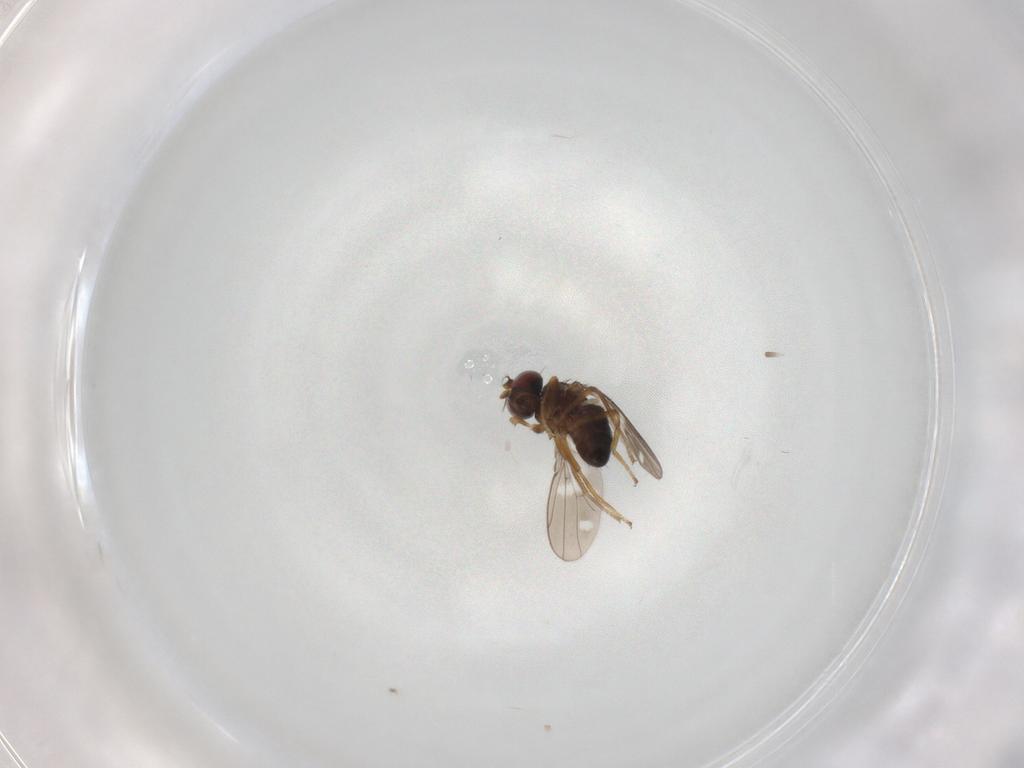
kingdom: Animalia
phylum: Arthropoda
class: Insecta
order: Diptera
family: Ephydridae
